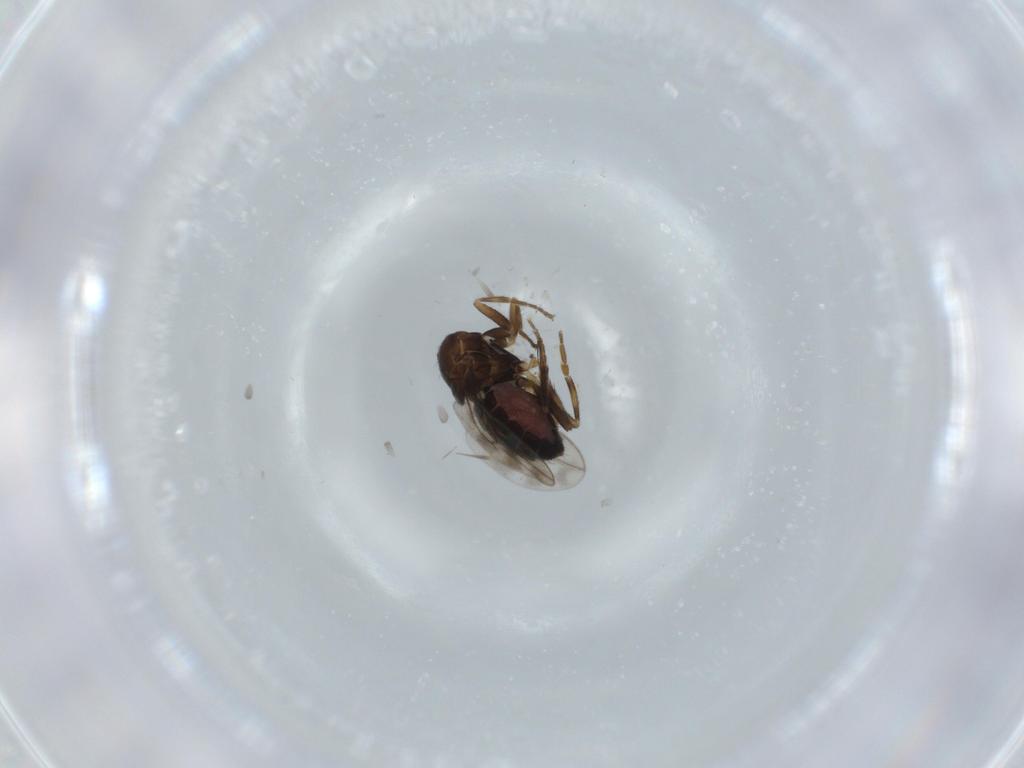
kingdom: Animalia
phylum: Arthropoda
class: Insecta
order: Diptera
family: Sphaeroceridae
